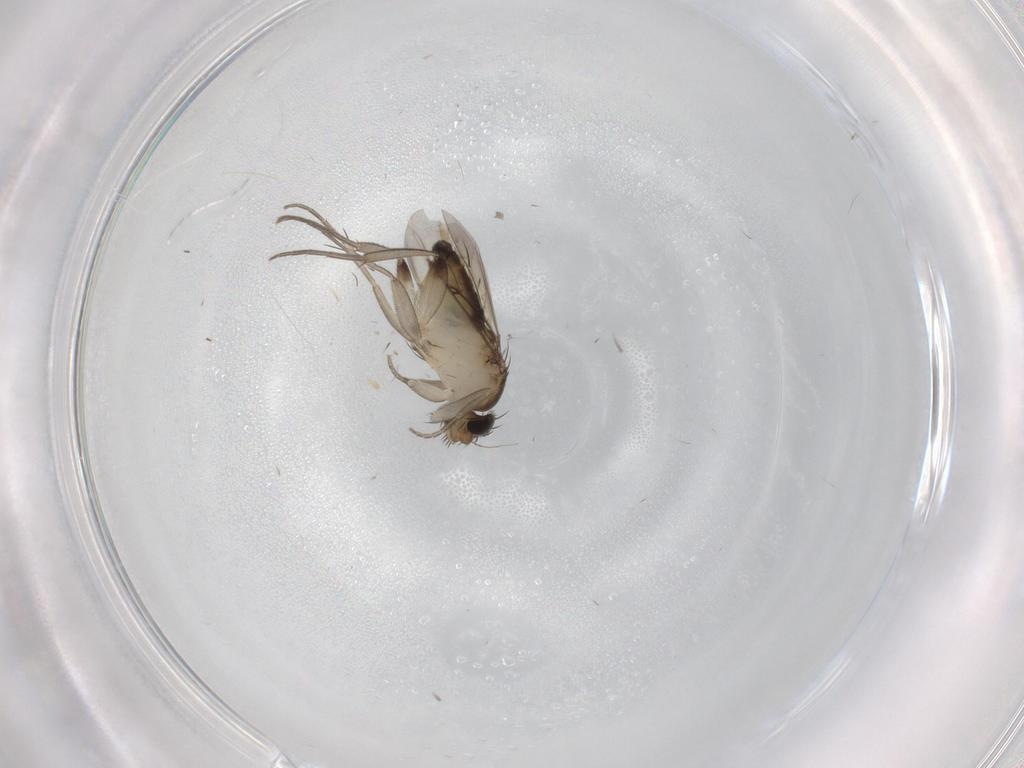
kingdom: Animalia
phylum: Arthropoda
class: Insecta
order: Diptera
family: Phoridae
